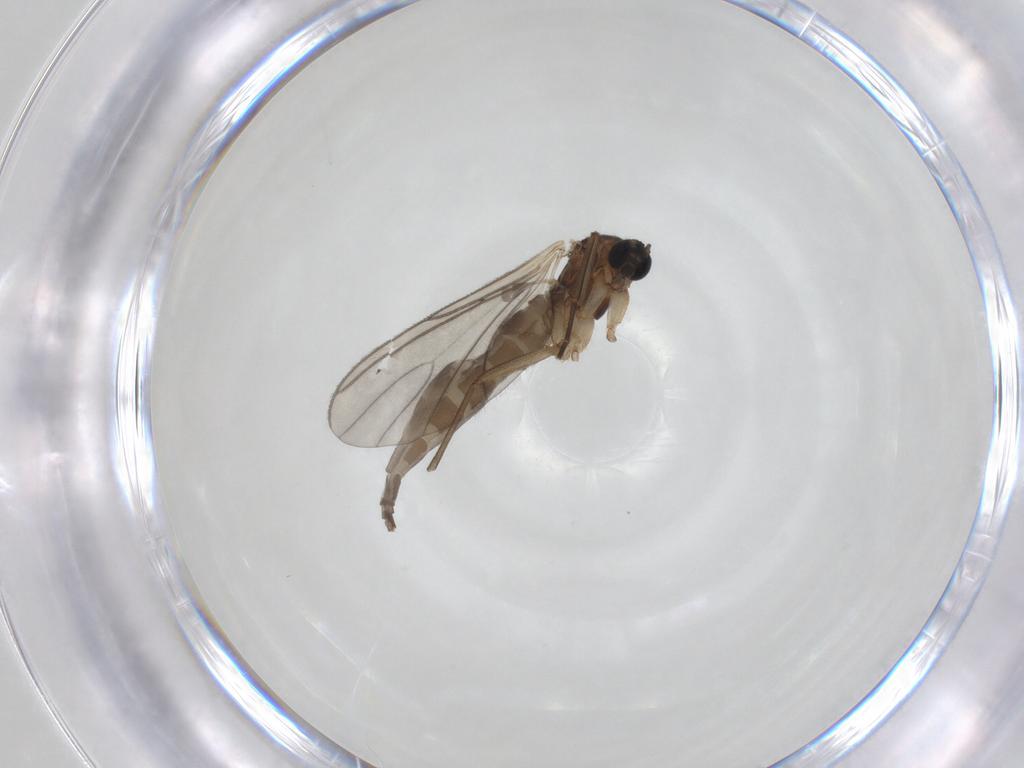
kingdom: Animalia
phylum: Arthropoda
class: Insecta
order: Diptera
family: Sciaridae
